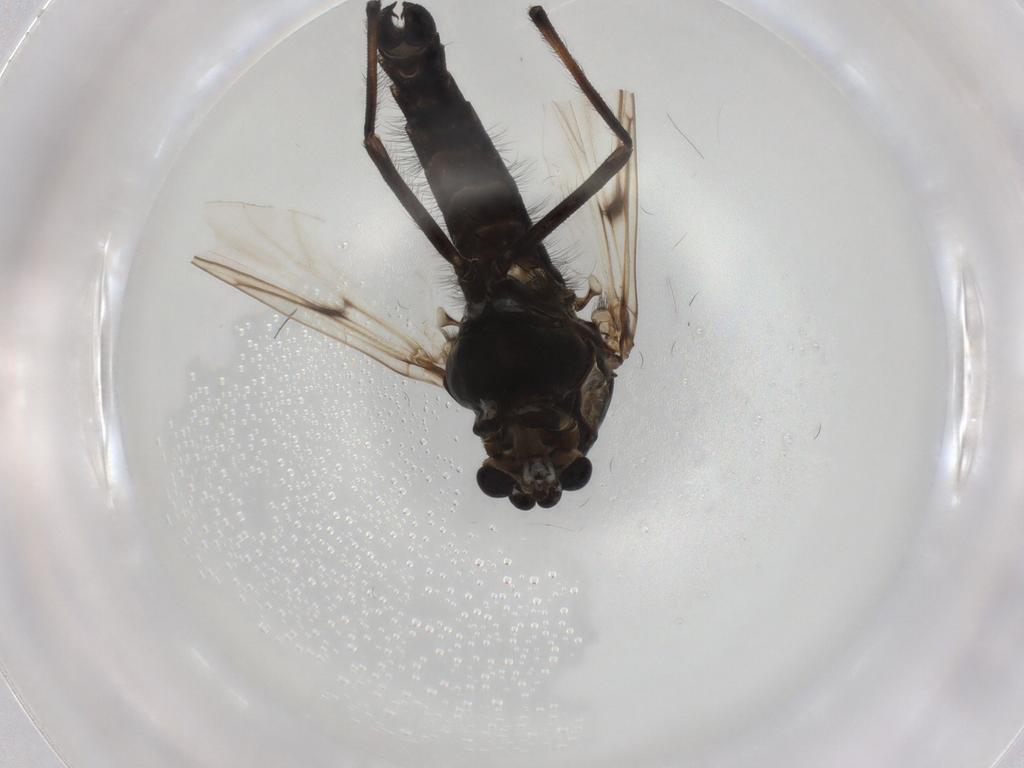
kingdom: Animalia
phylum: Arthropoda
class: Insecta
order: Diptera
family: Chironomidae
